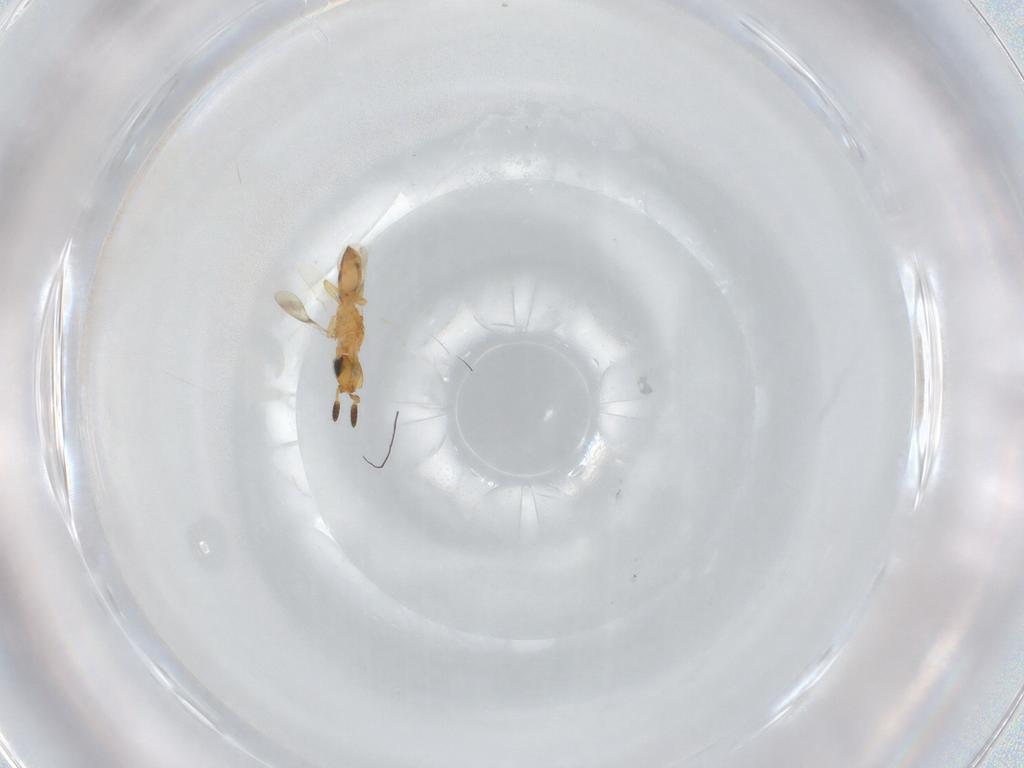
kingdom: Animalia
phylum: Arthropoda
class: Insecta
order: Hymenoptera
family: Scelionidae
